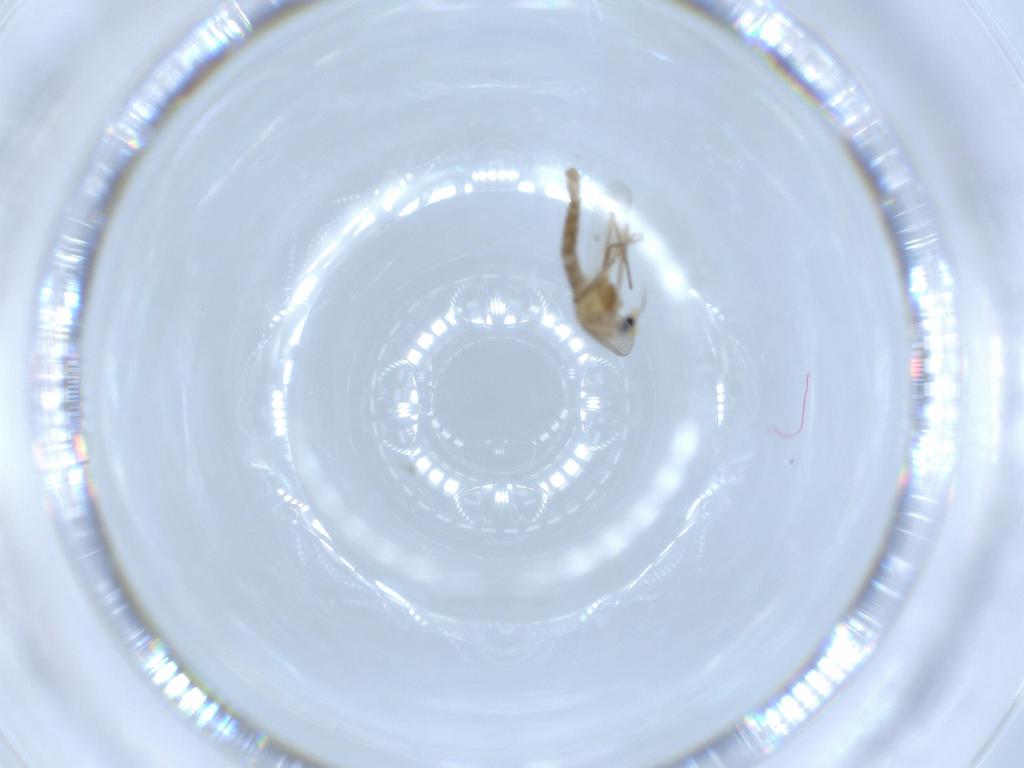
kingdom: Animalia
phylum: Arthropoda
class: Insecta
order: Diptera
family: Chironomidae
